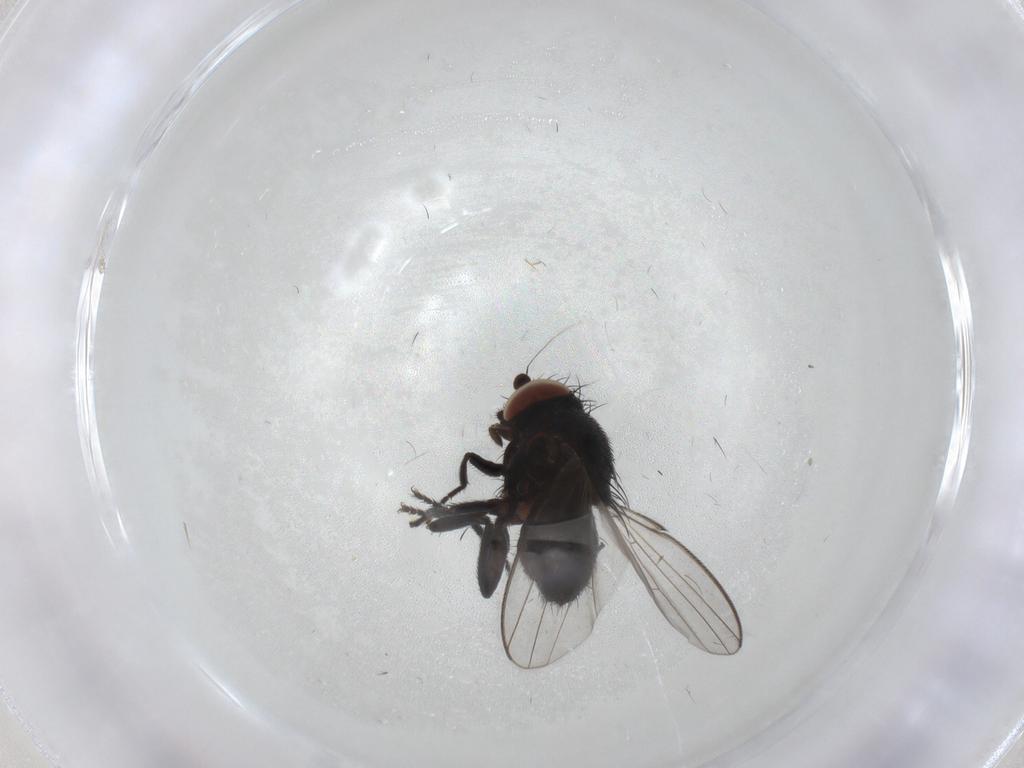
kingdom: Animalia
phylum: Arthropoda
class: Insecta
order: Diptera
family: Milichiidae
